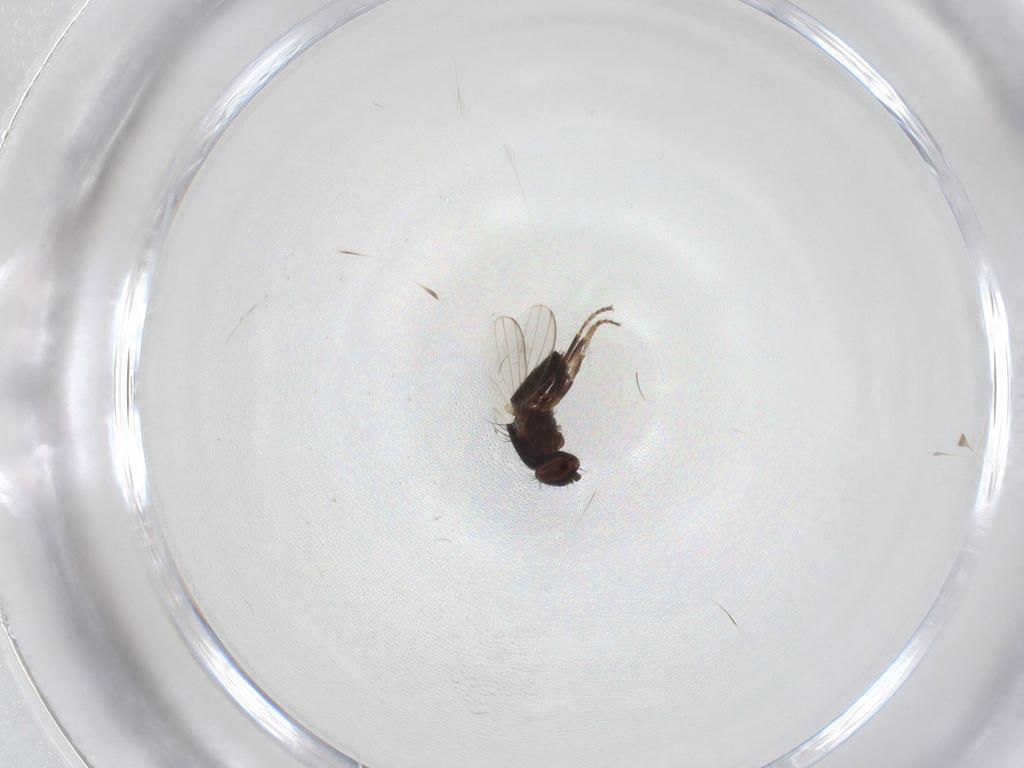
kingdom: Animalia
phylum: Arthropoda
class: Insecta
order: Diptera
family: Milichiidae
